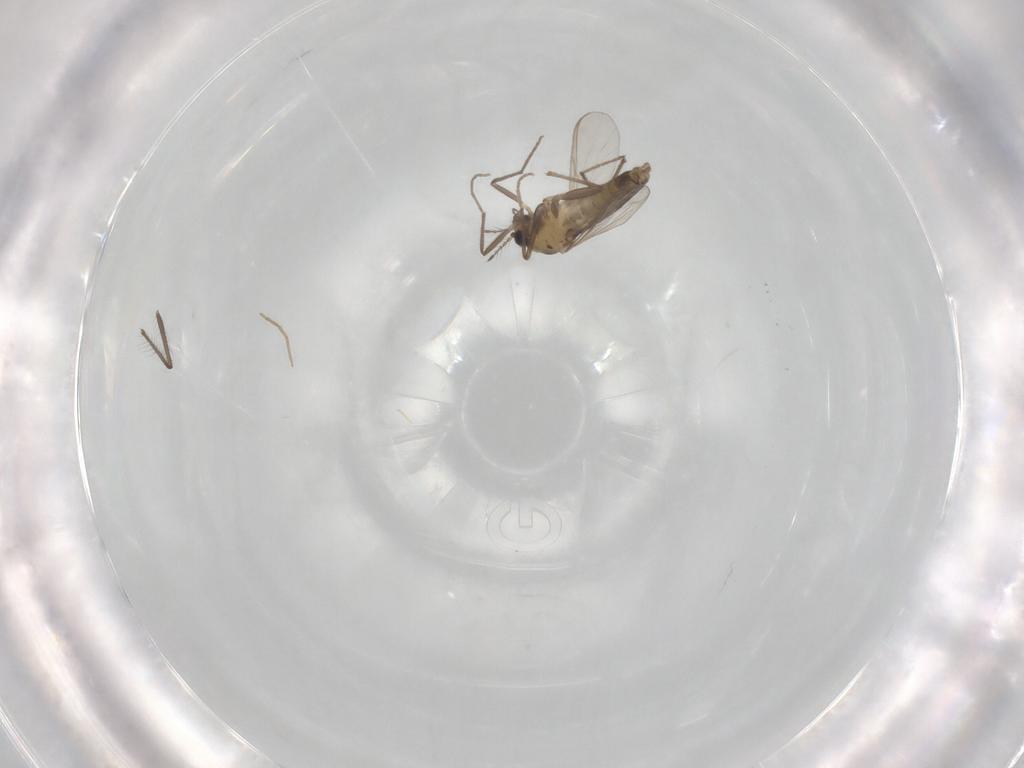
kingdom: Animalia
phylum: Arthropoda
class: Insecta
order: Diptera
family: Chironomidae
